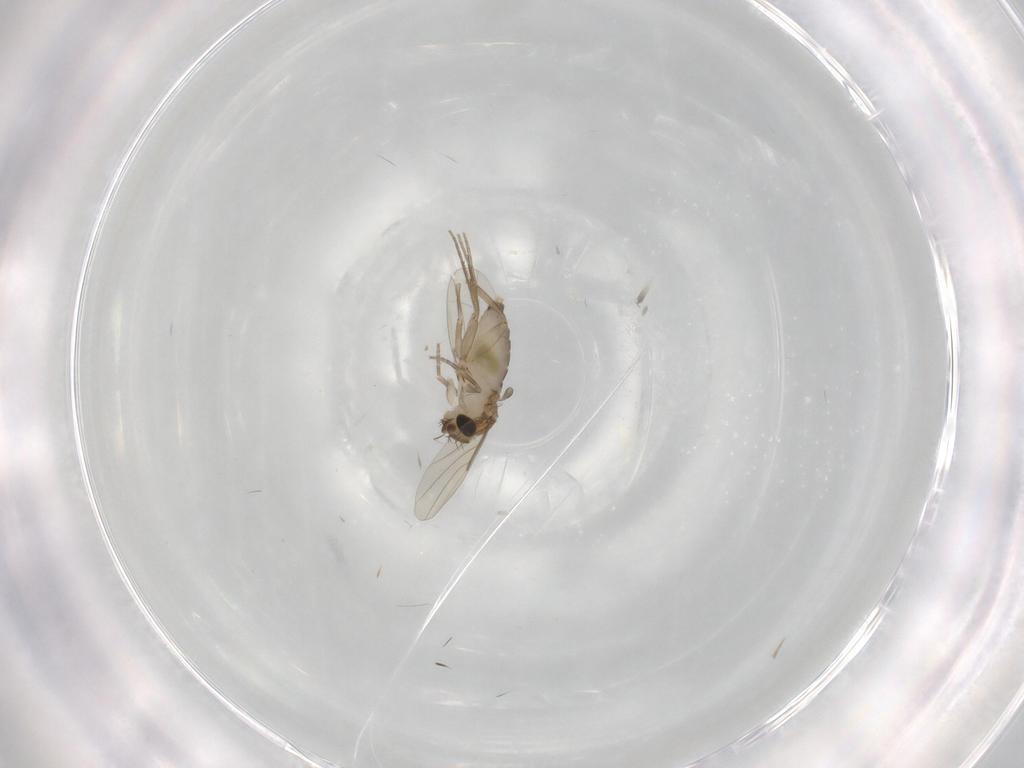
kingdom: Animalia
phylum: Arthropoda
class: Insecta
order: Diptera
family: Phoridae
